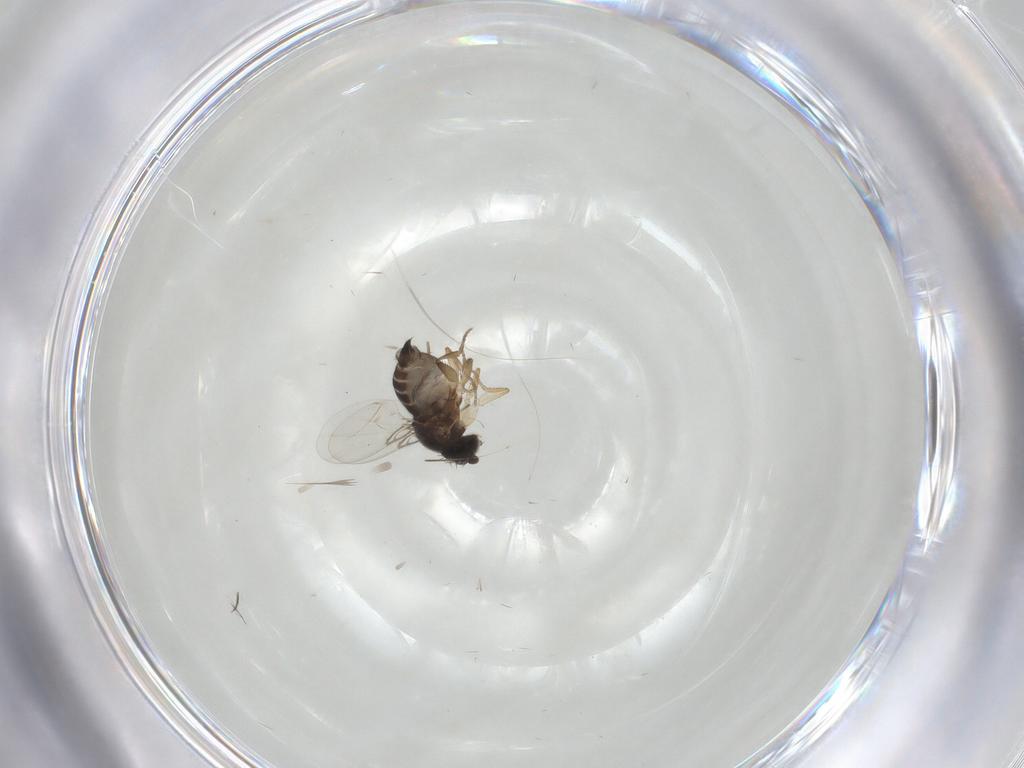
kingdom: Animalia
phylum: Arthropoda
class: Insecta
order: Diptera
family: Phoridae
